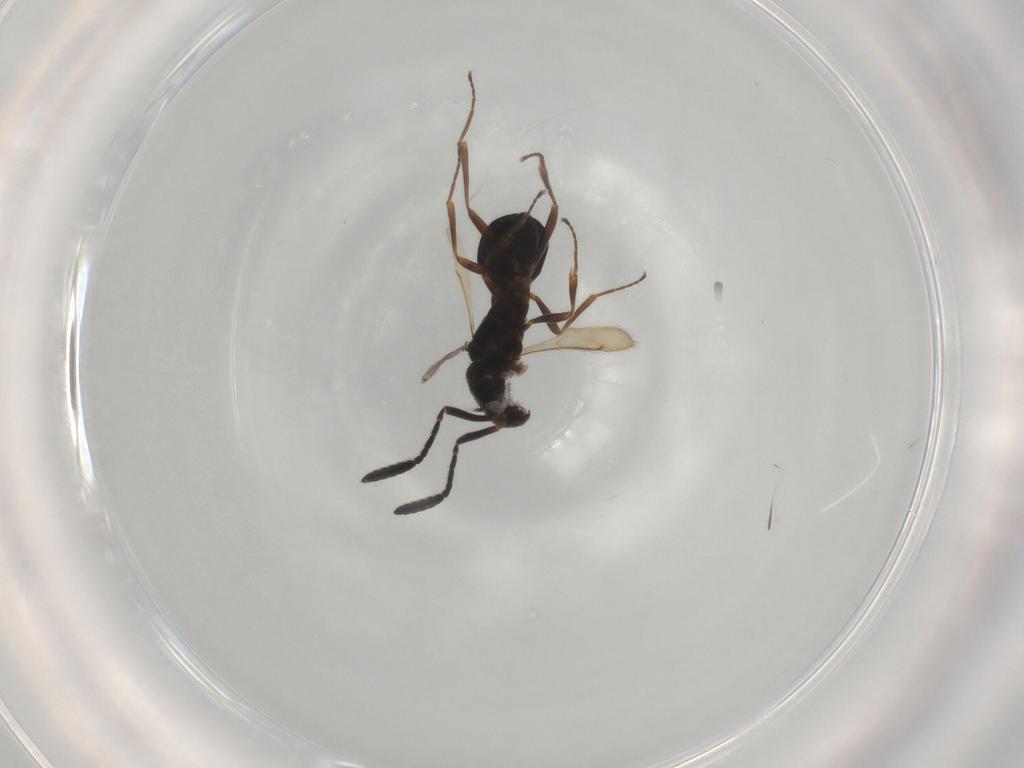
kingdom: Animalia
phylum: Arthropoda
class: Insecta
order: Hymenoptera
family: Scelionidae
